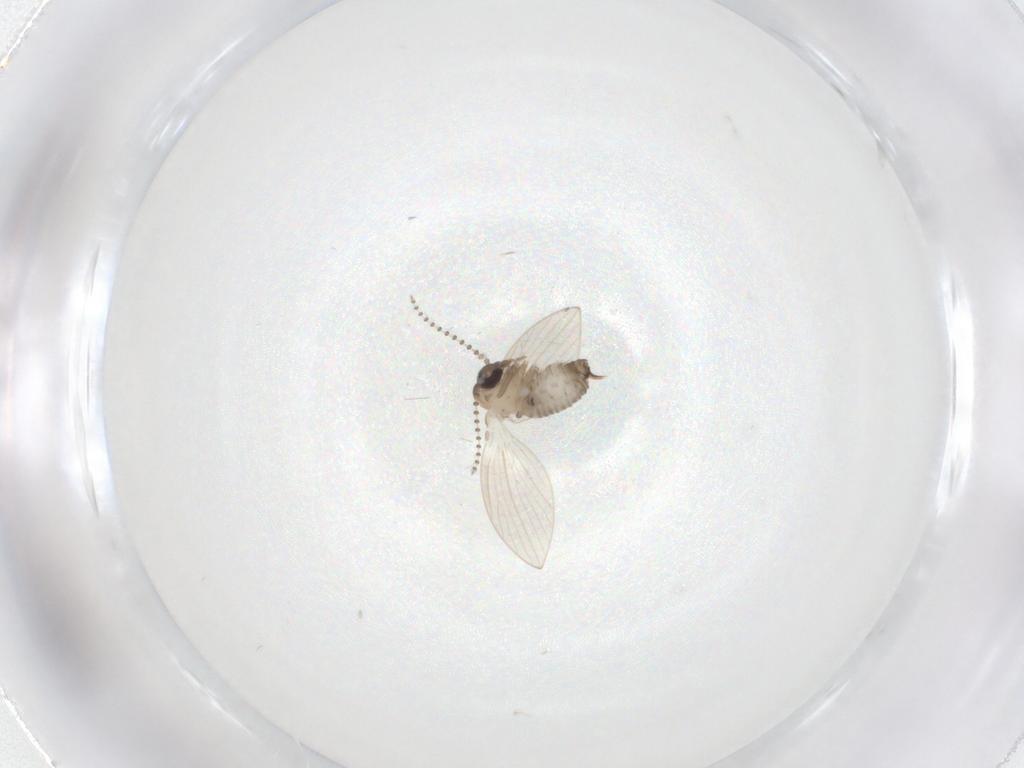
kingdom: Animalia
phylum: Arthropoda
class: Insecta
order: Diptera
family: Psychodidae
